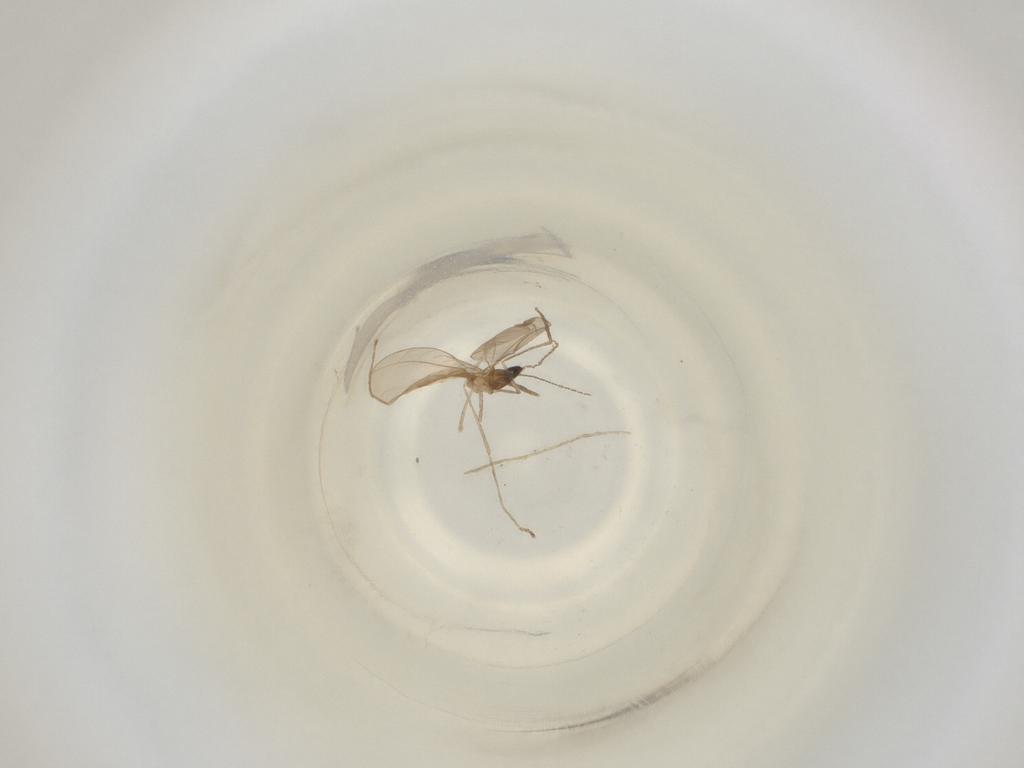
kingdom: Animalia
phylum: Arthropoda
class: Insecta
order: Diptera
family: Cecidomyiidae
